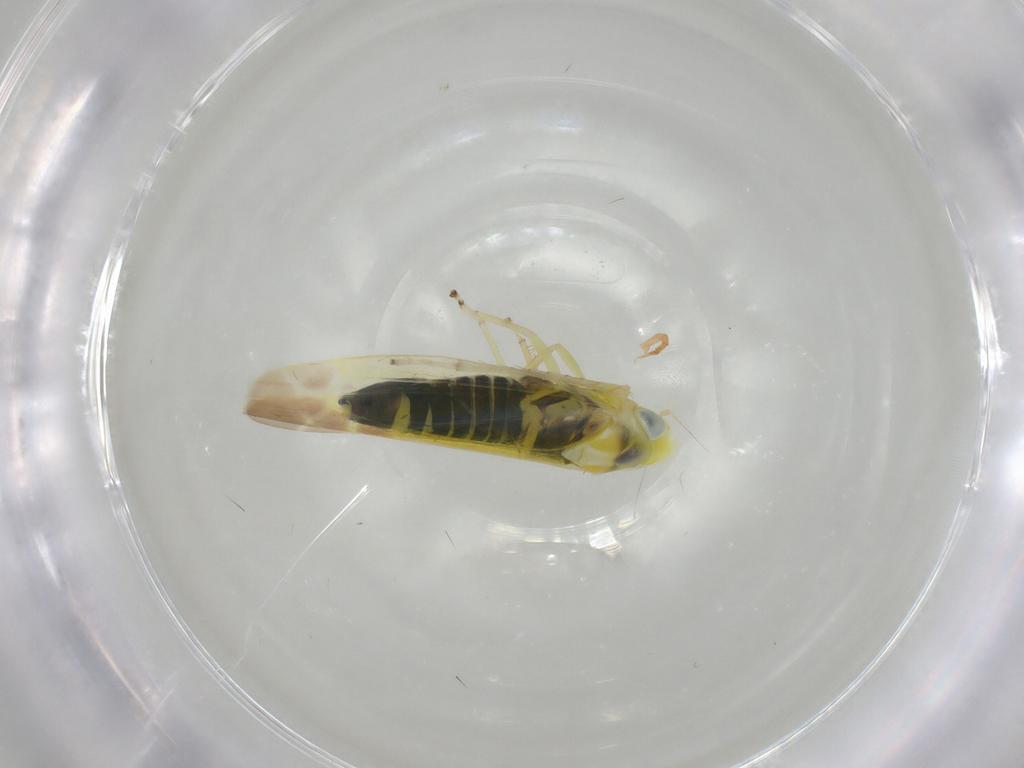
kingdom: Animalia
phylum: Arthropoda
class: Insecta
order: Hemiptera
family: Cicadellidae
